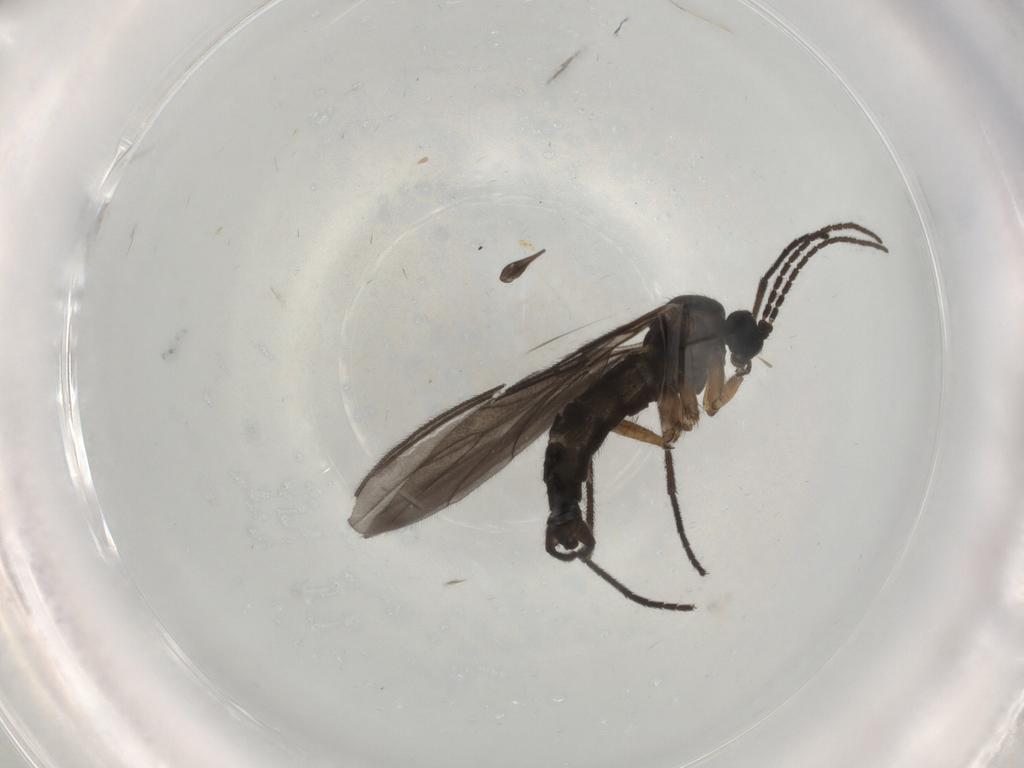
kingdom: Animalia
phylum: Arthropoda
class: Insecta
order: Diptera
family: Sciaridae
